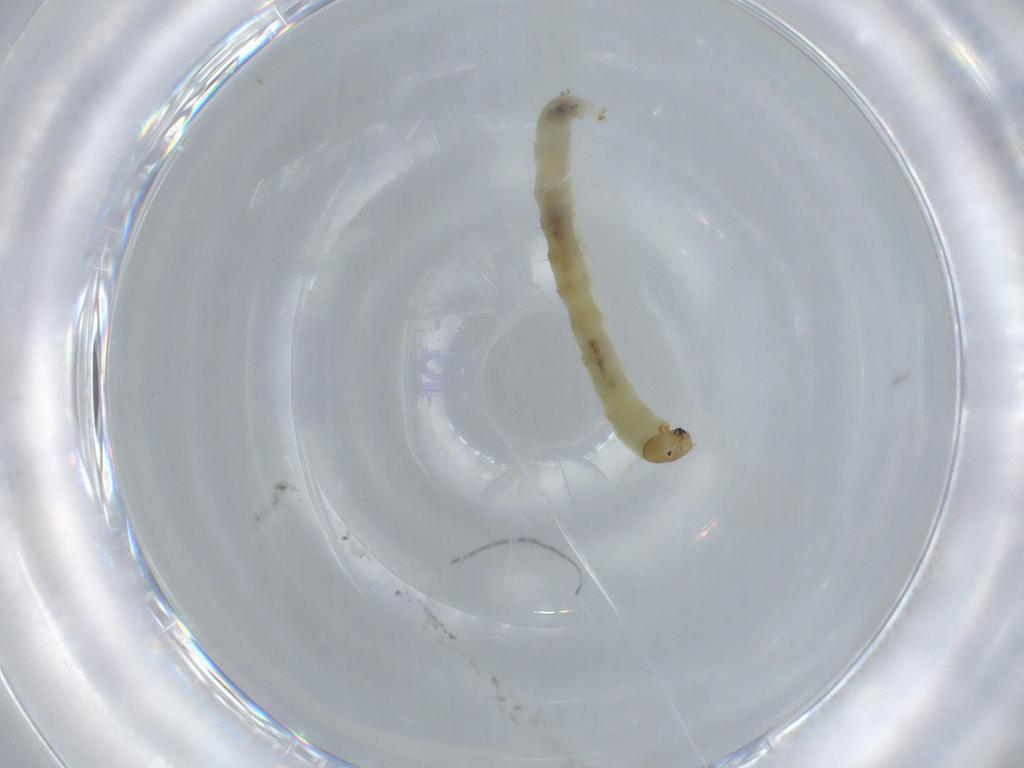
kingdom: Animalia
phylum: Arthropoda
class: Insecta
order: Diptera
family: Chironomidae
